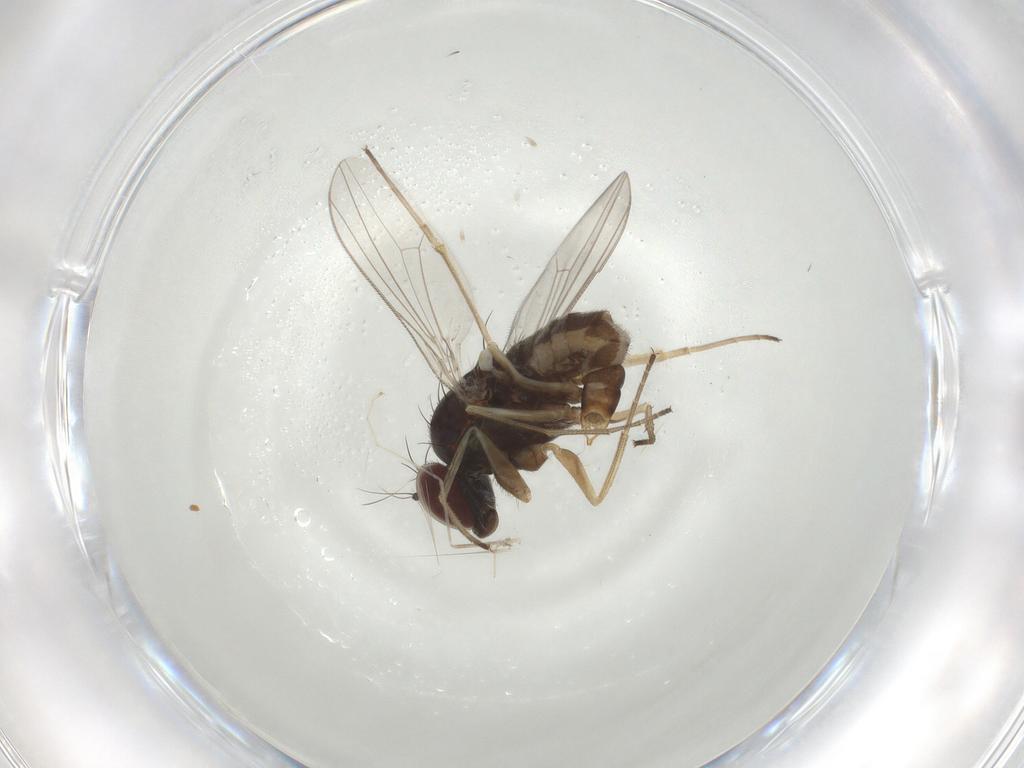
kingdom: Animalia
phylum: Arthropoda
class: Insecta
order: Diptera
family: Dolichopodidae
